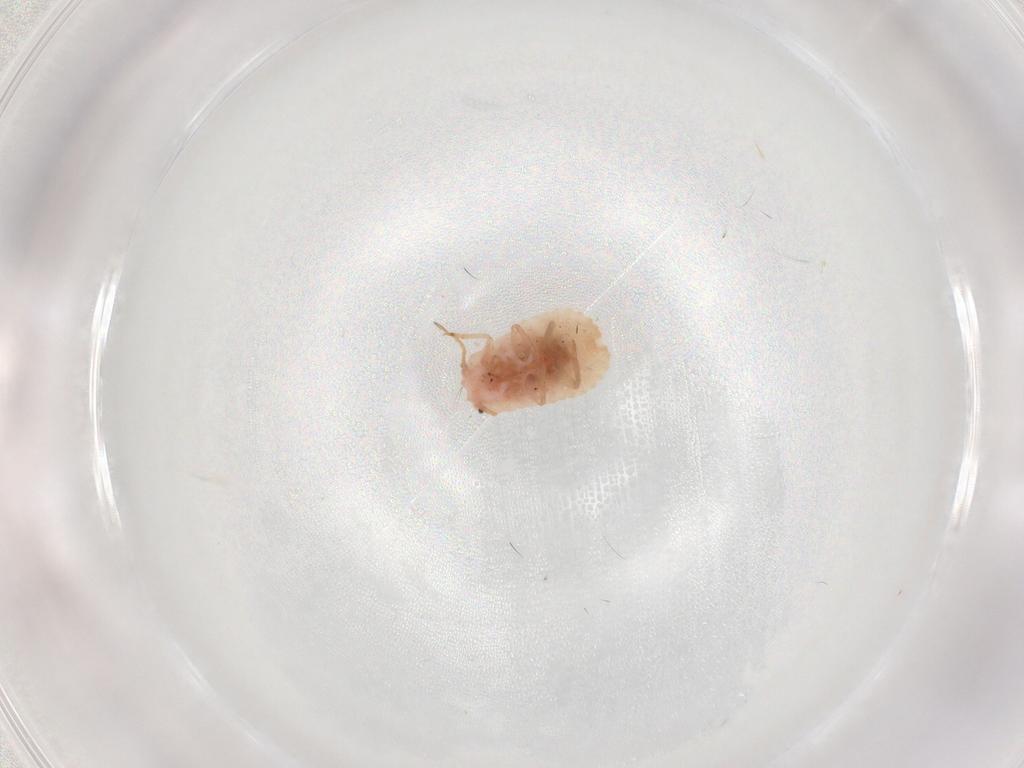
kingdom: Animalia
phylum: Arthropoda
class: Insecta
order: Hemiptera
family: Coccoidea_incertae_sedis
